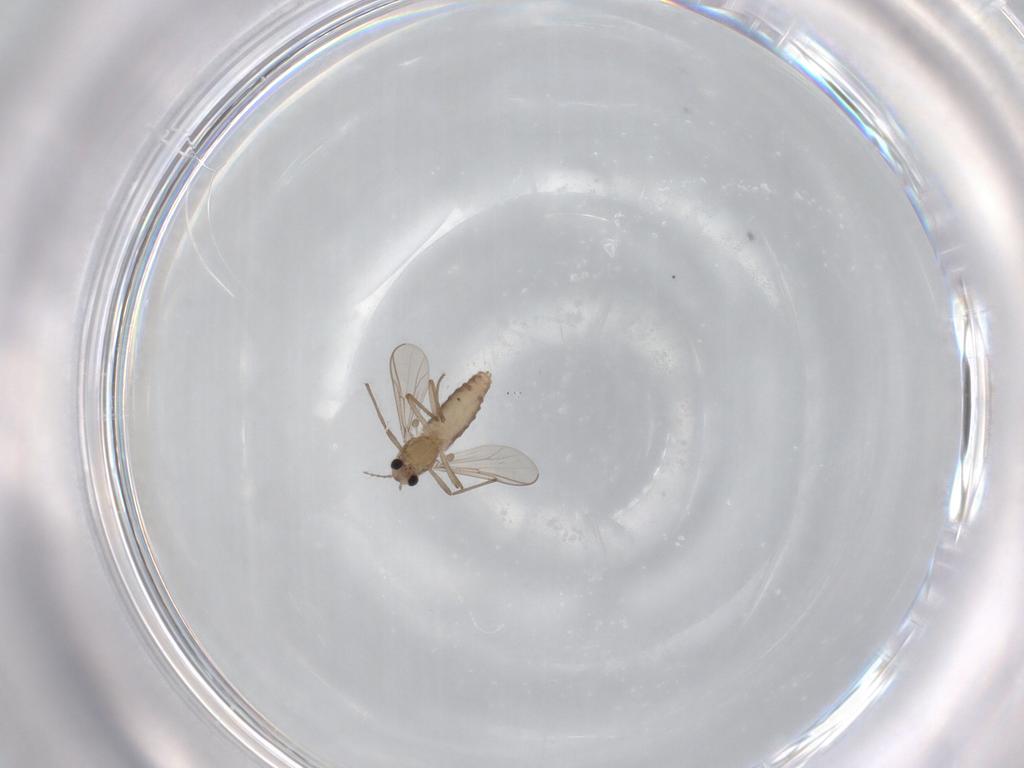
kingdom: Animalia
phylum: Arthropoda
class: Insecta
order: Diptera
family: Chironomidae
